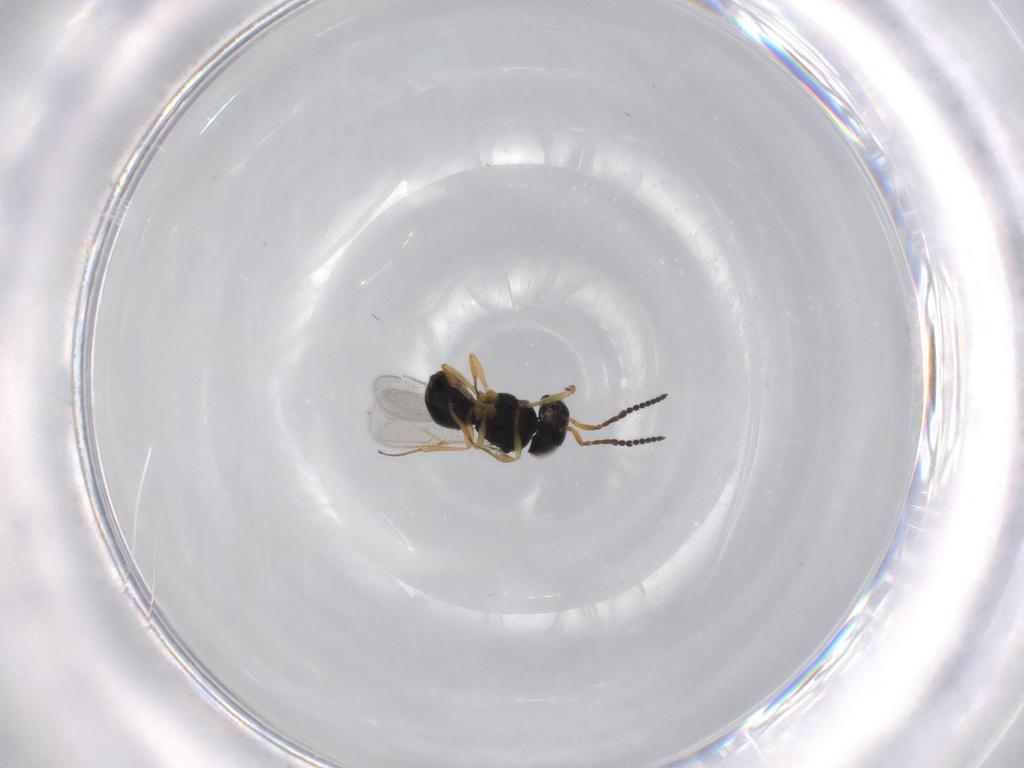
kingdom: Animalia
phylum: Arthropoda
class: Insecta
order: Hymenoptera
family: Scelionidae
